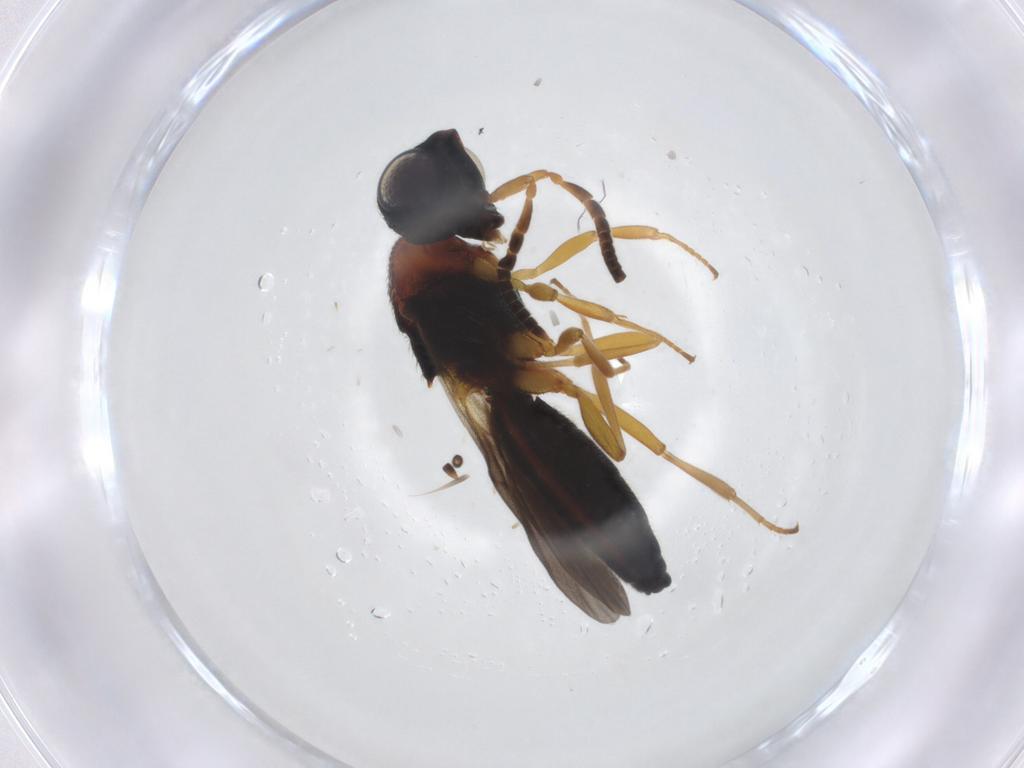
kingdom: Animalia
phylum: Arthropoda
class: Insecta
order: Hymenoptera
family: Scelionidae
